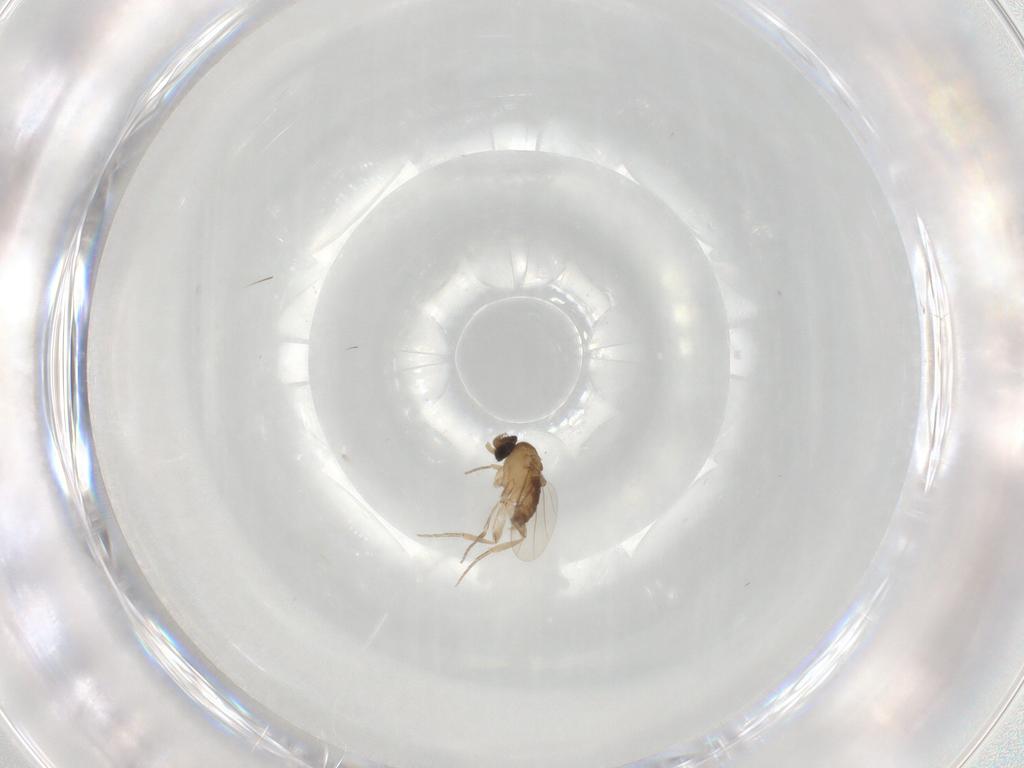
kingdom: Animalia
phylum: Arthropoda
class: Insecta
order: Diptera
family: Phoridae
